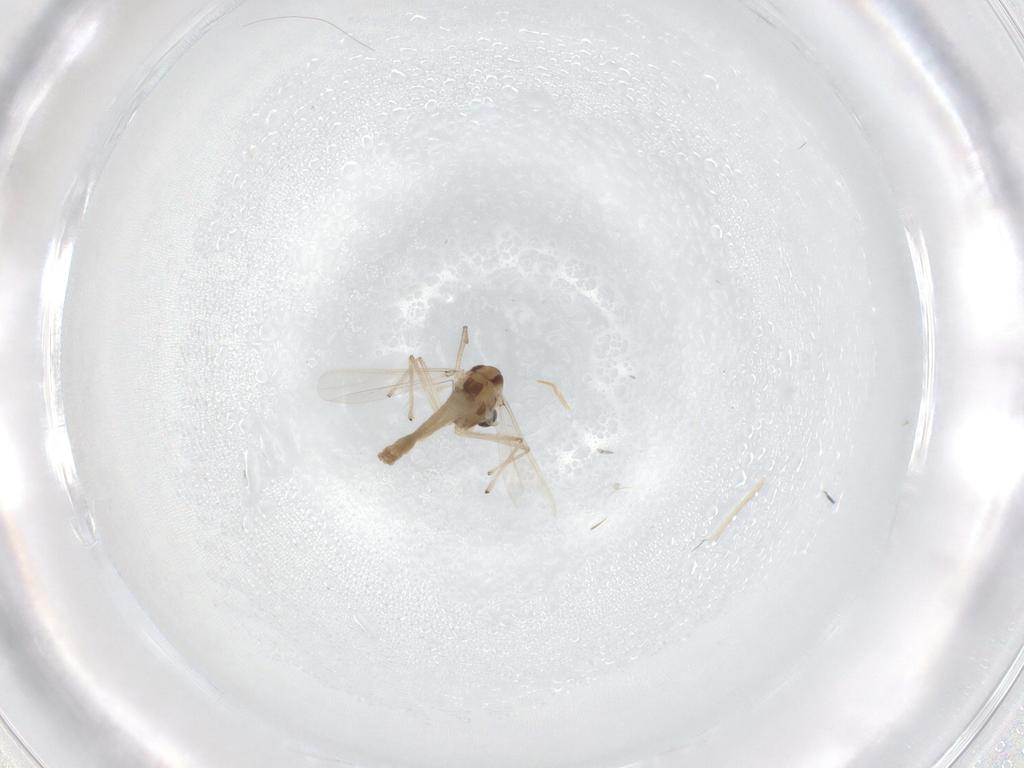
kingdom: Animalia
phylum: Arthropoda
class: Insecta
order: Diptera
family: Chironomidae
